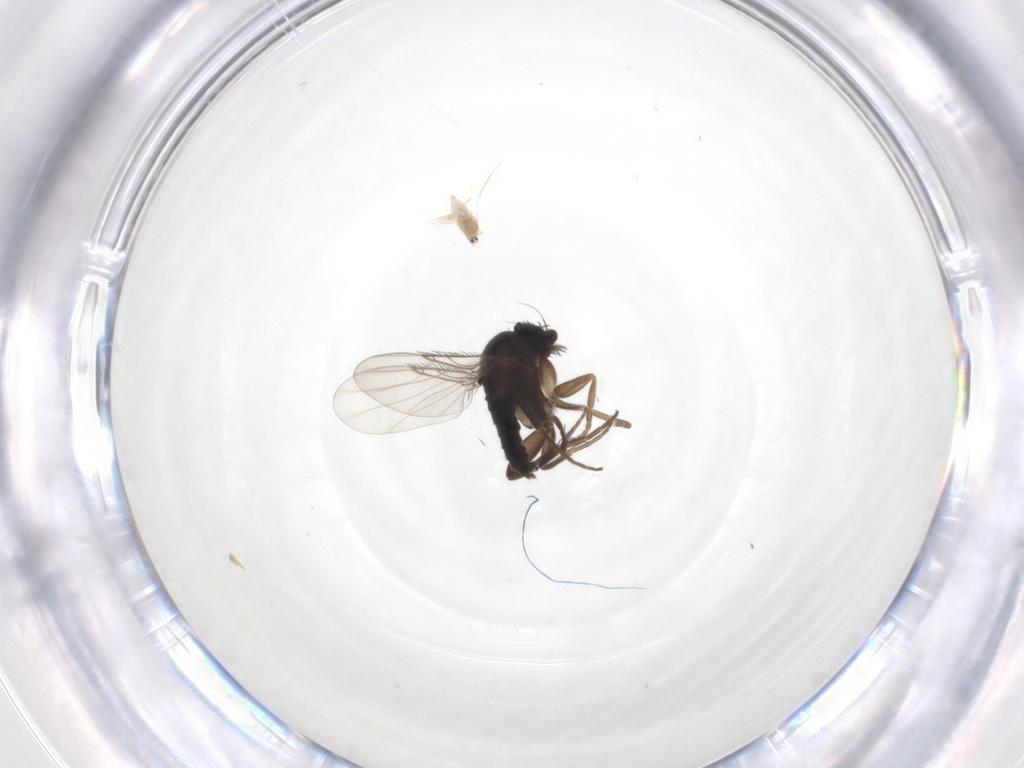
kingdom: Animalia
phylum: Arthropoda
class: Insecta
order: Diptera
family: Phoridae
